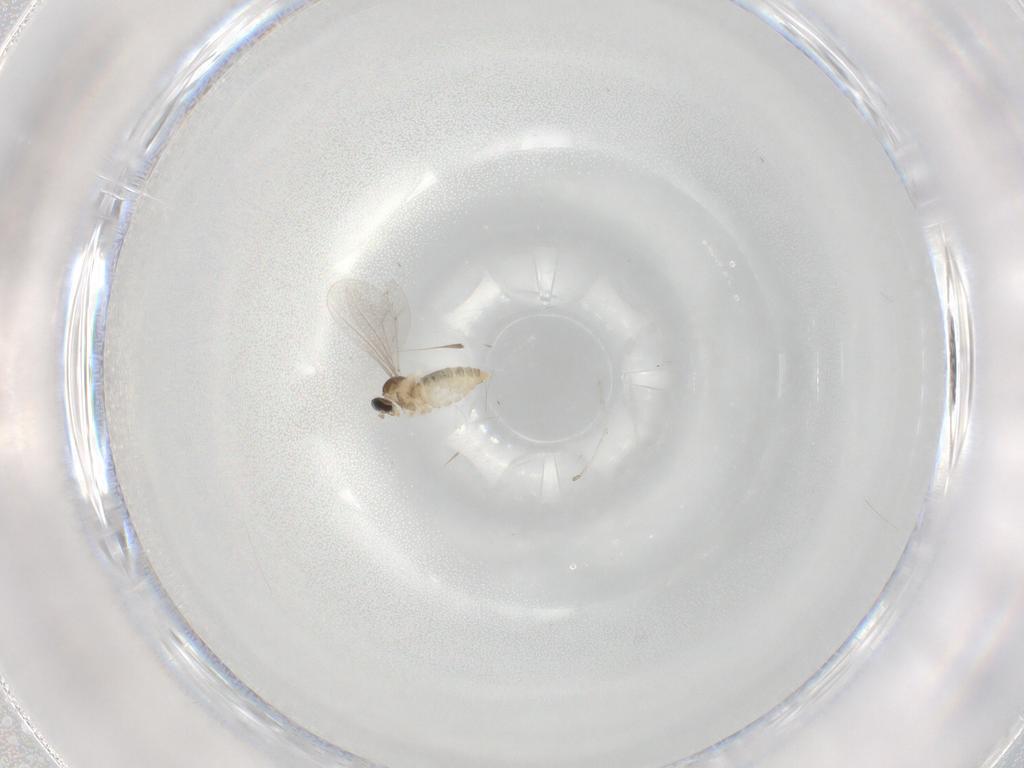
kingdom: Animalia
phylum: Arthropoda
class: Insecta
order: Diptera
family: Cecidomyiidae
